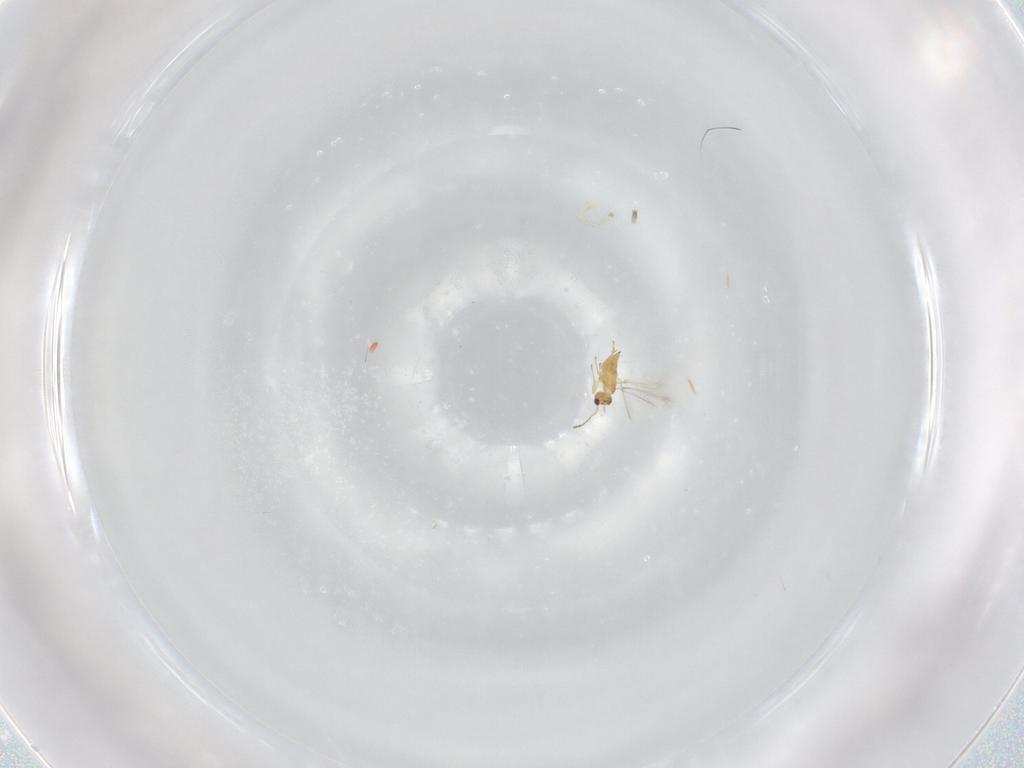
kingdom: Animalia
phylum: Arthropoda
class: Insecta
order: Hymenoptera
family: Mymaridae
